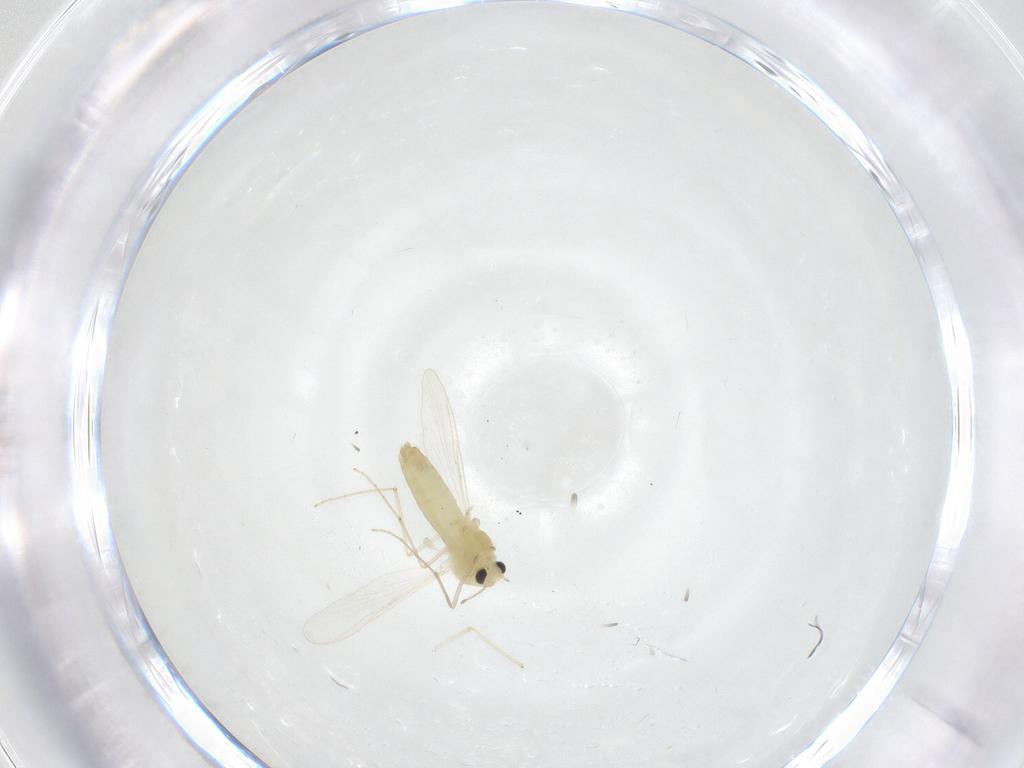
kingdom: Animalia
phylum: Arthropoda
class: Insecta
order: Diptera
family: Chironomidae
